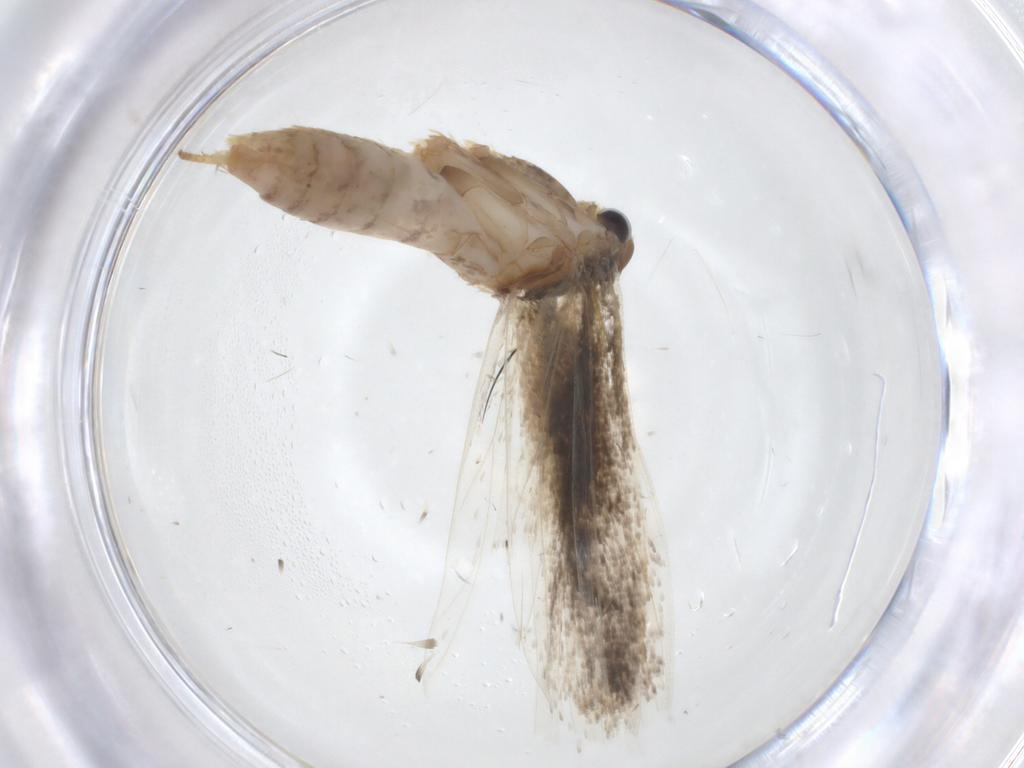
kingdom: Animalia
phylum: Arthropoda
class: Insecta
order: Lepidoptera
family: Gelechiidae
